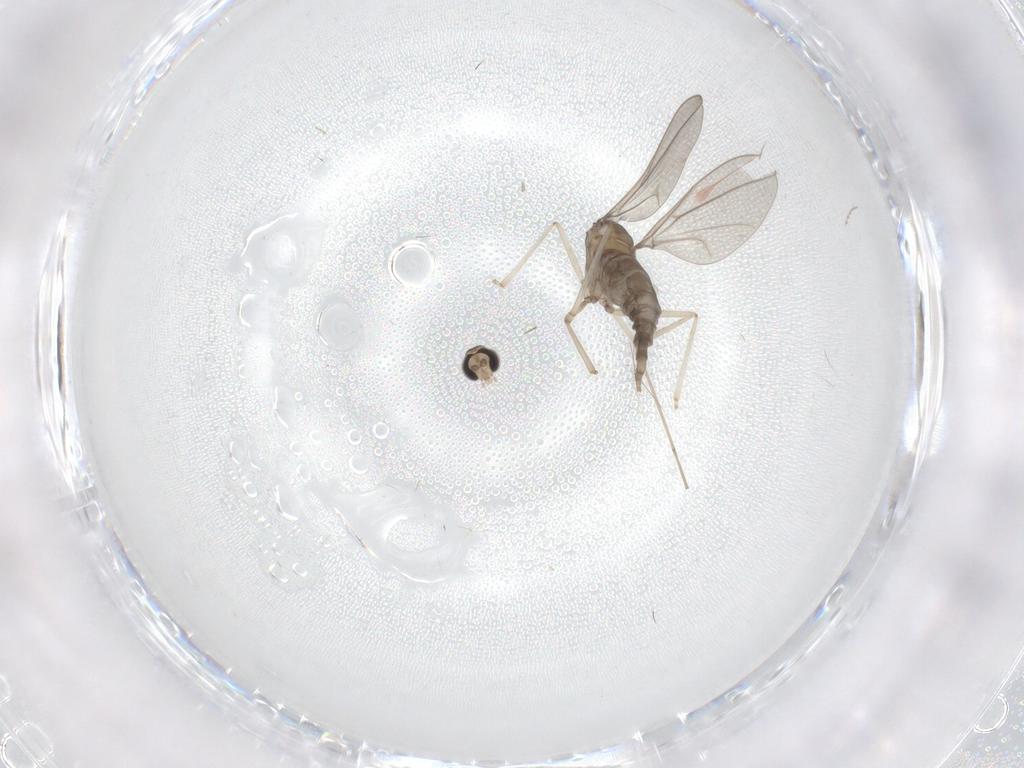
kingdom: Animalia
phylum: Arthropoda
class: Insecta
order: Diptera
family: Cecidomyiidae
